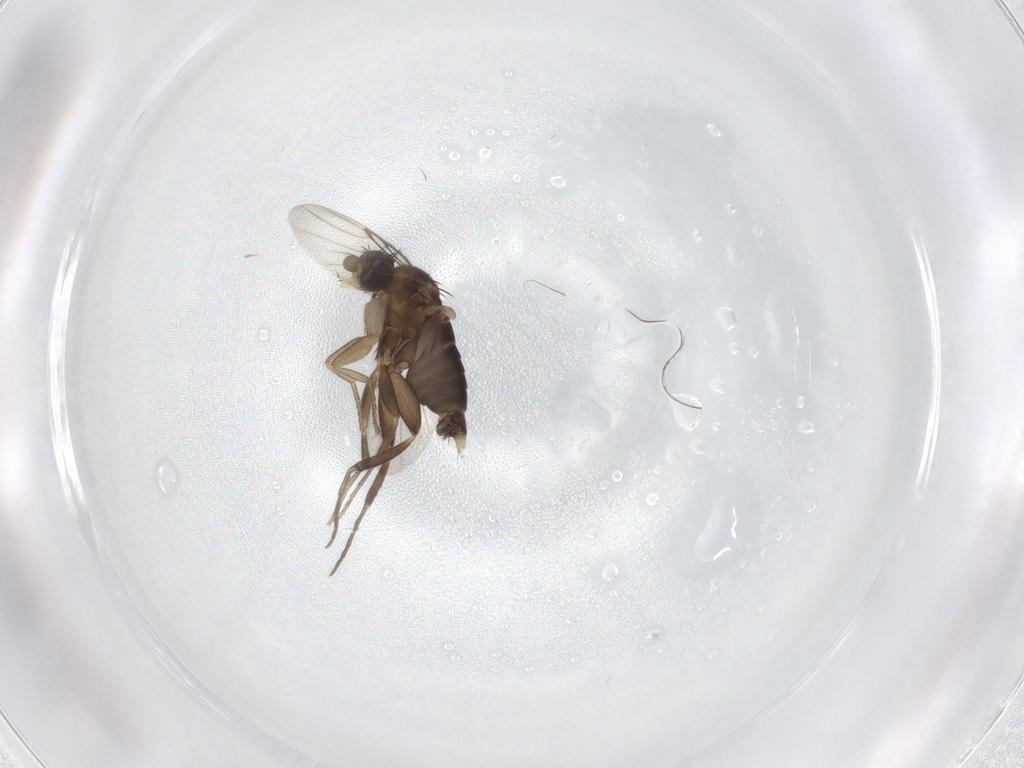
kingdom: Animalia
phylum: Arthropoda
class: Insecta
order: Diptera
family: Phoridae
